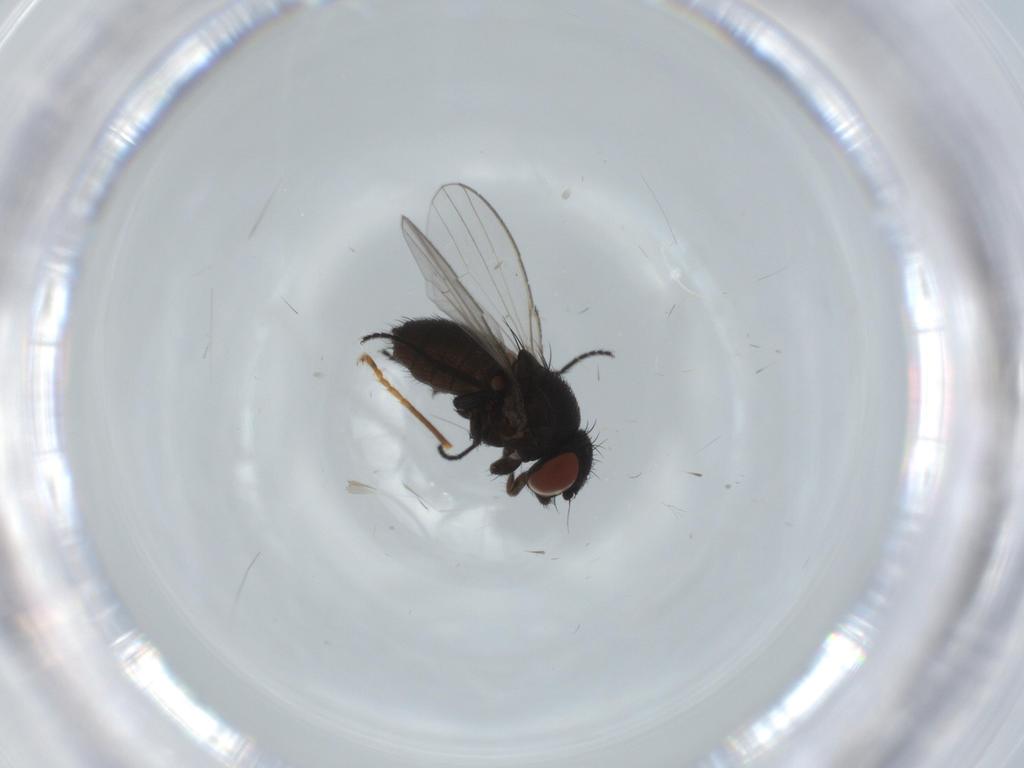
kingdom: Animalia
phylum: Arthropoda
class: Insecta
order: Diptera
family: Milichiidae
